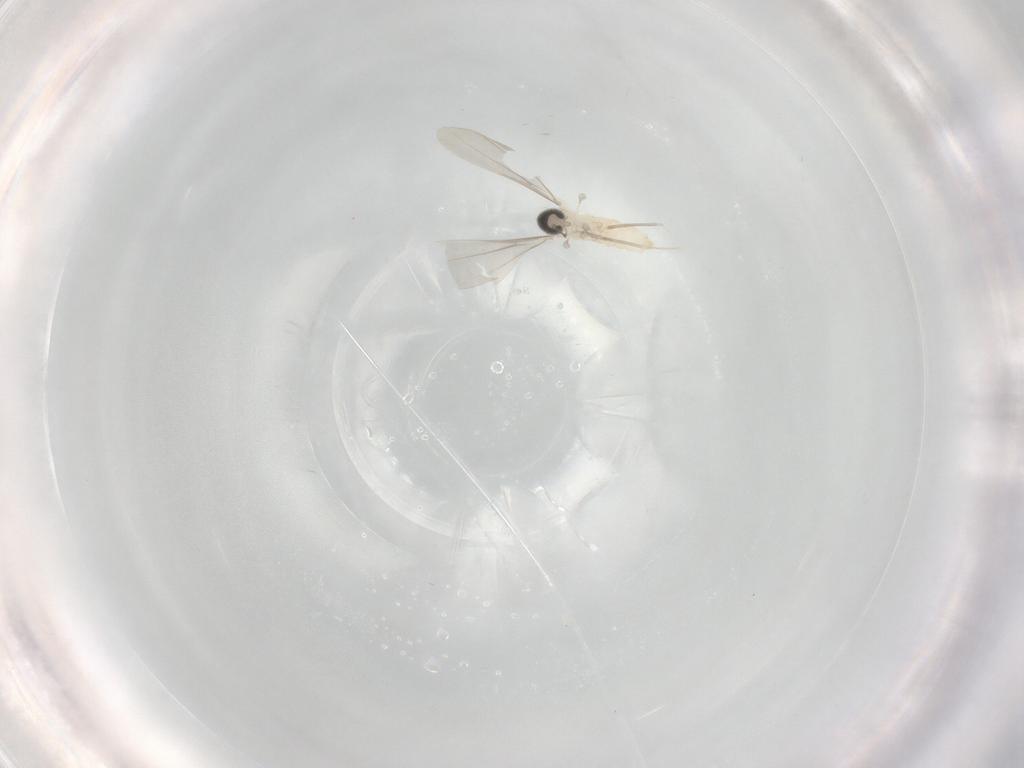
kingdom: Animalia
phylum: Arthropoda
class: Insecta
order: Diptera
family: Cecidomyiidae
